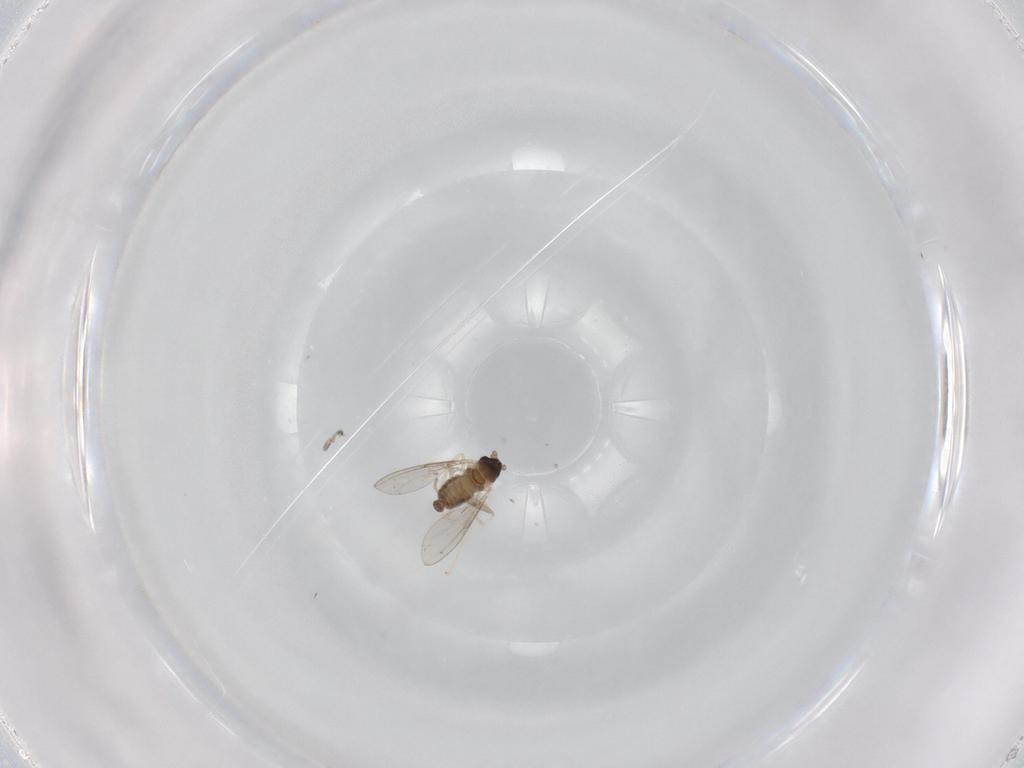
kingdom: Animalia
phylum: Arthropoda
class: Insecta
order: Diptera
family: Cecidomyiidae
